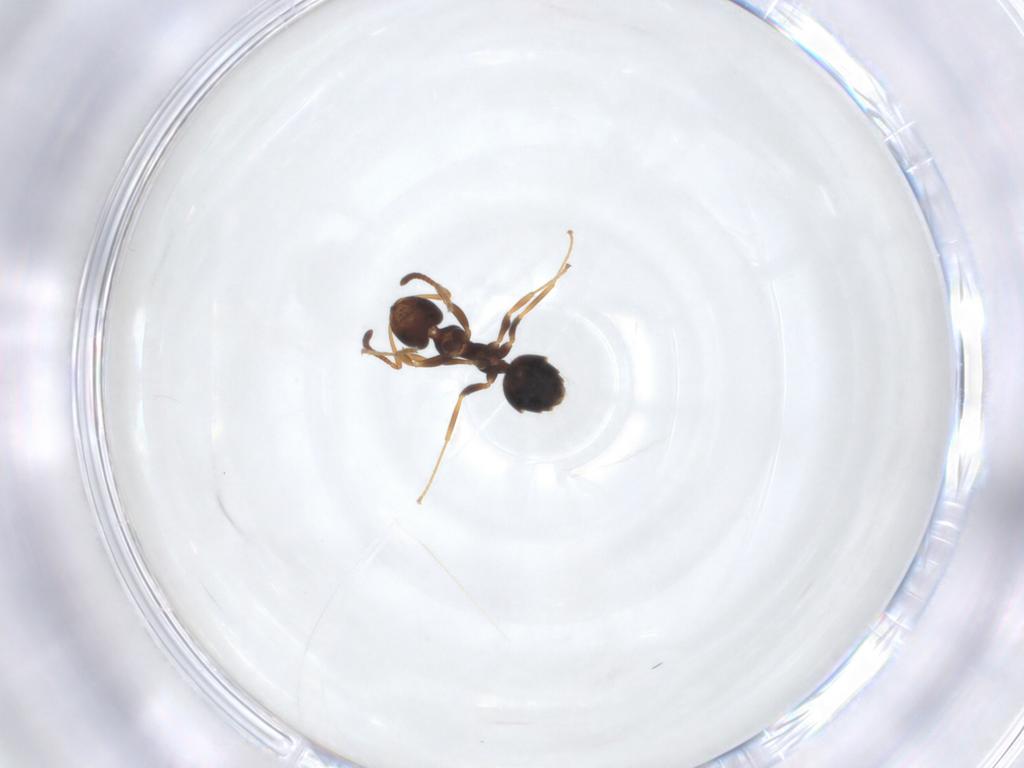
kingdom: Animalia
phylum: Arthropoda
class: Insecta
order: Hymenoptera
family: Formicidae
